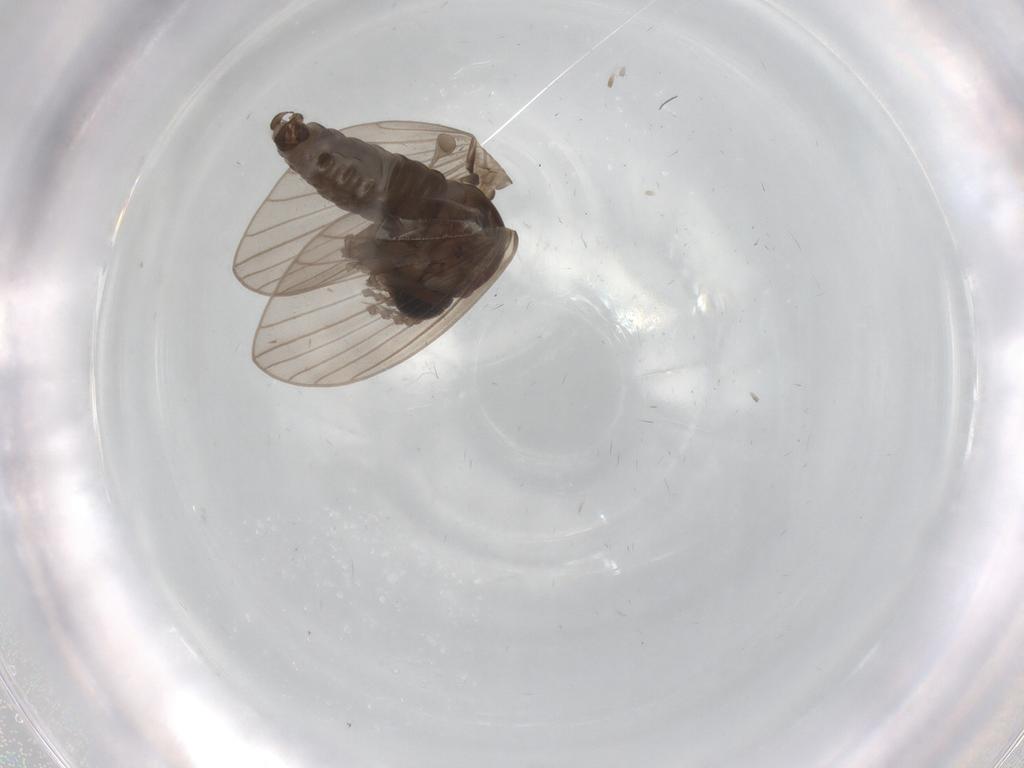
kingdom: Animalia
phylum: Arthropoda
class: Insecta
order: Diptera
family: Psychodidae
